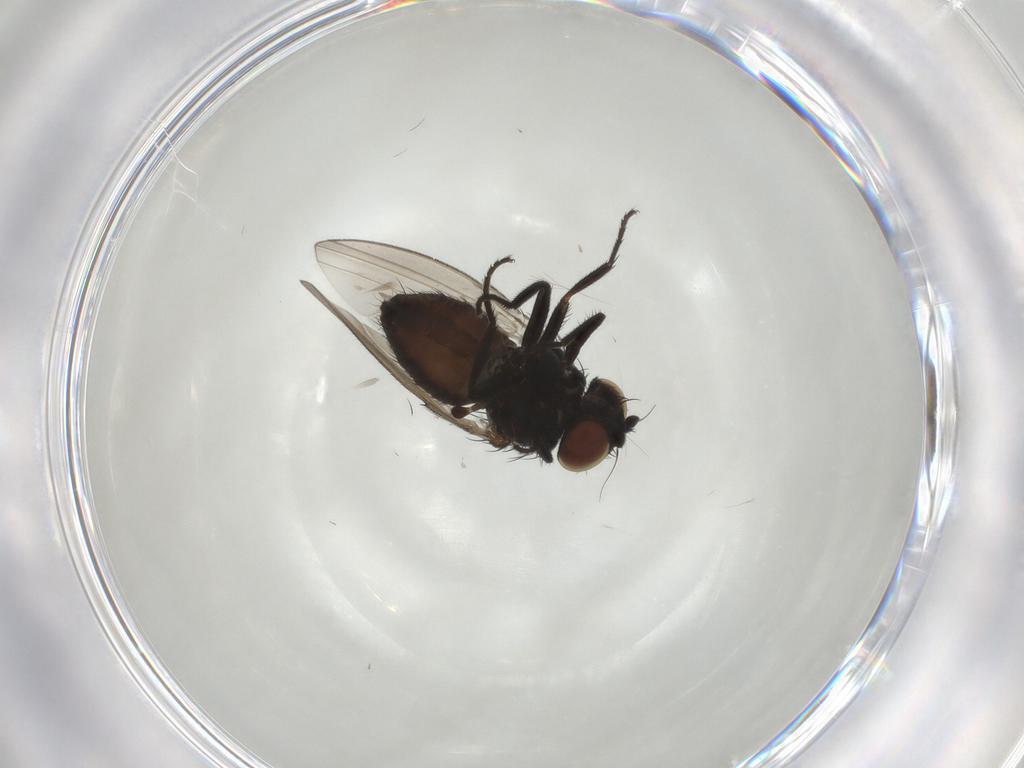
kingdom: Animalia
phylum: Arthropoda
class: Insecta
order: Diptera
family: Milichiidae
